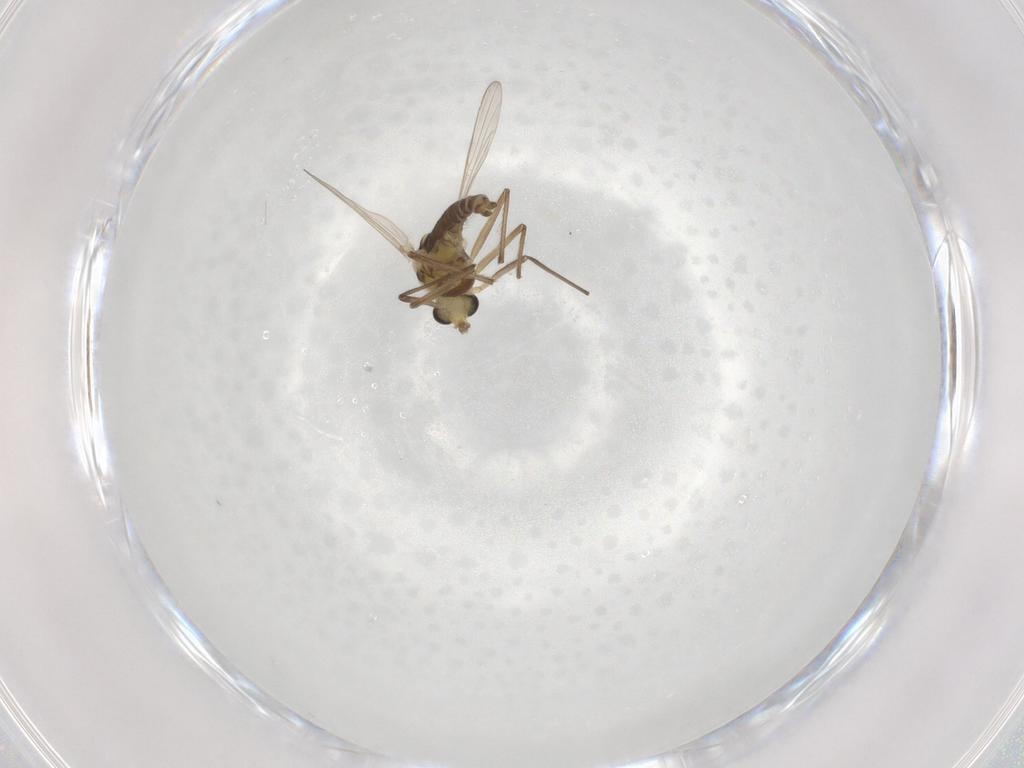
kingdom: Animalia
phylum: Arthropoda
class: Insecta
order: Diptera
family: Chironomidae
